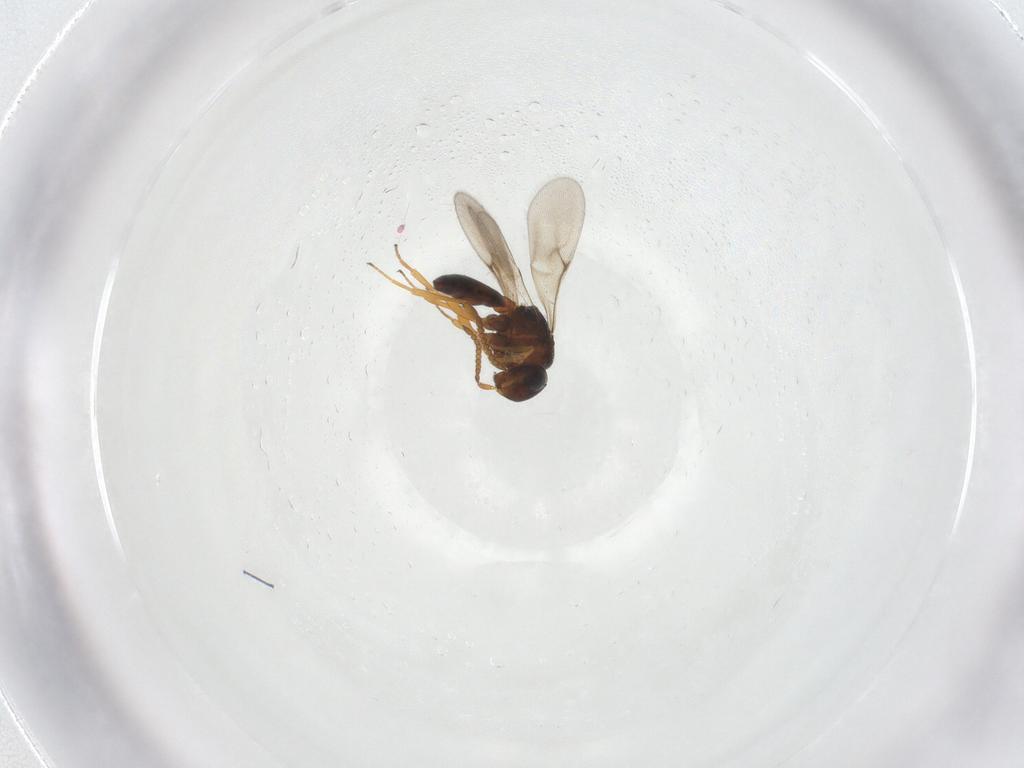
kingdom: Animalia
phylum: Arthropoda
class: Arachnida
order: Araneae
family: Pholcidae
